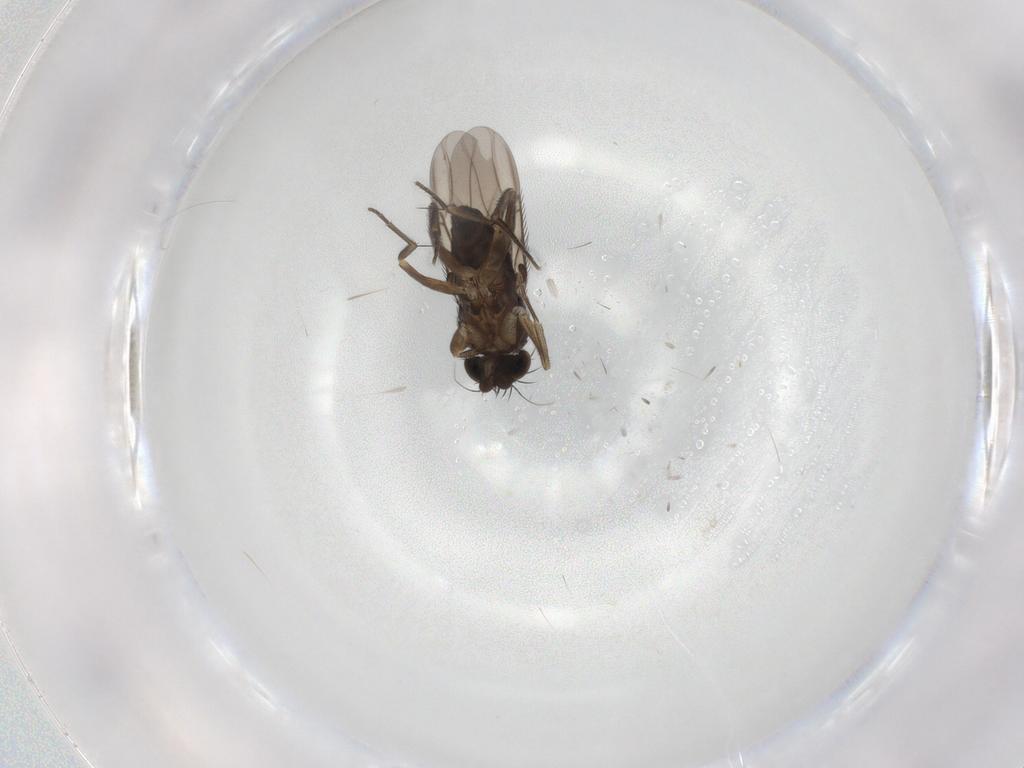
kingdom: Animalia
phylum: Arthropoda
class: Insecta
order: Diptera
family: Phoridae
